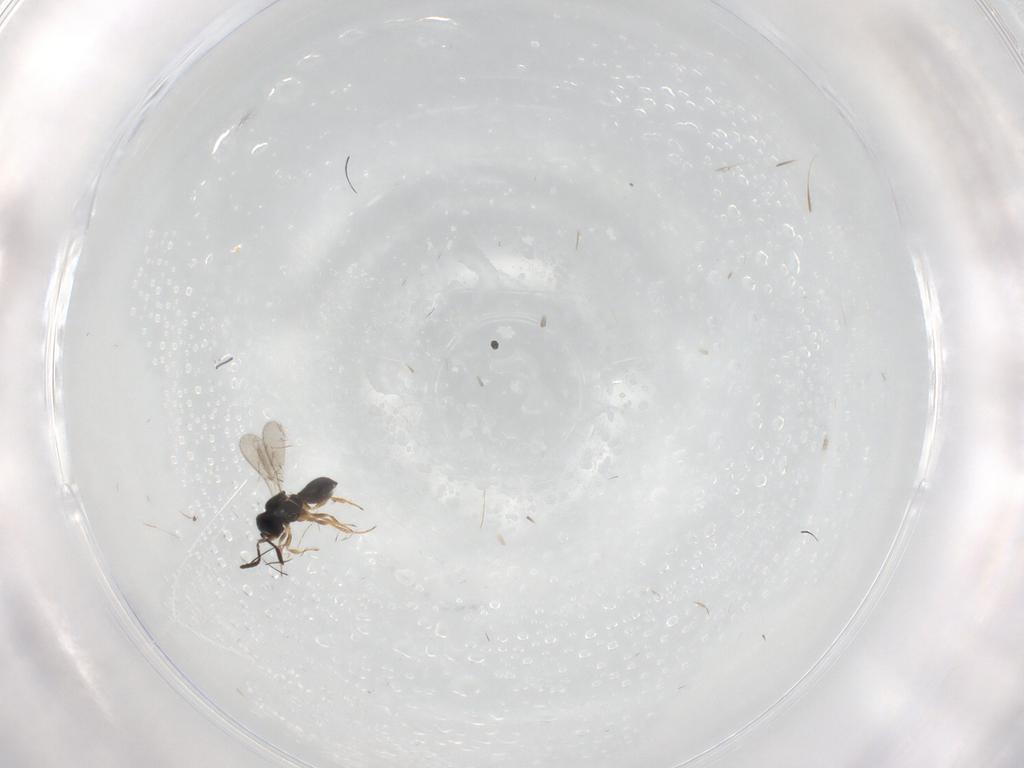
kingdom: Animalia
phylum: Arthropoda
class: Insecta
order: Hymenoptera
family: Scelionidae
